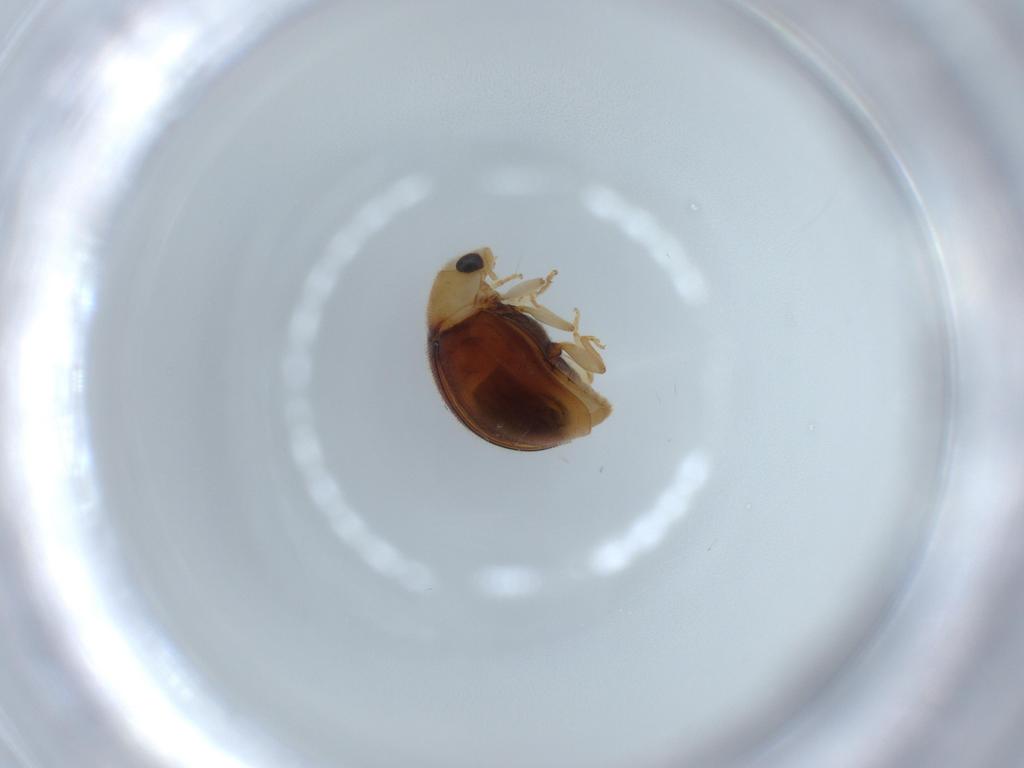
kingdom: Animalia
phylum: Arthropoda
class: Insecta
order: Coleoptera
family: Coccinellidae
